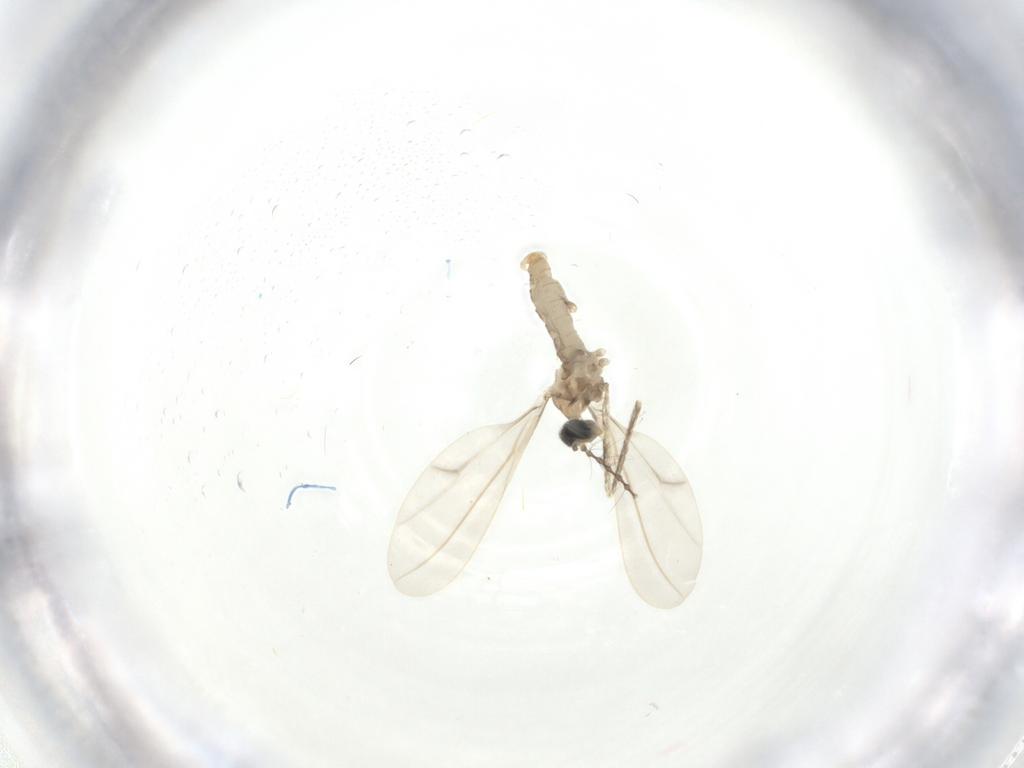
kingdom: Animalia
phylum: Arthropoda
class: Insecta
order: Diptera
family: Cecidomyiidae
